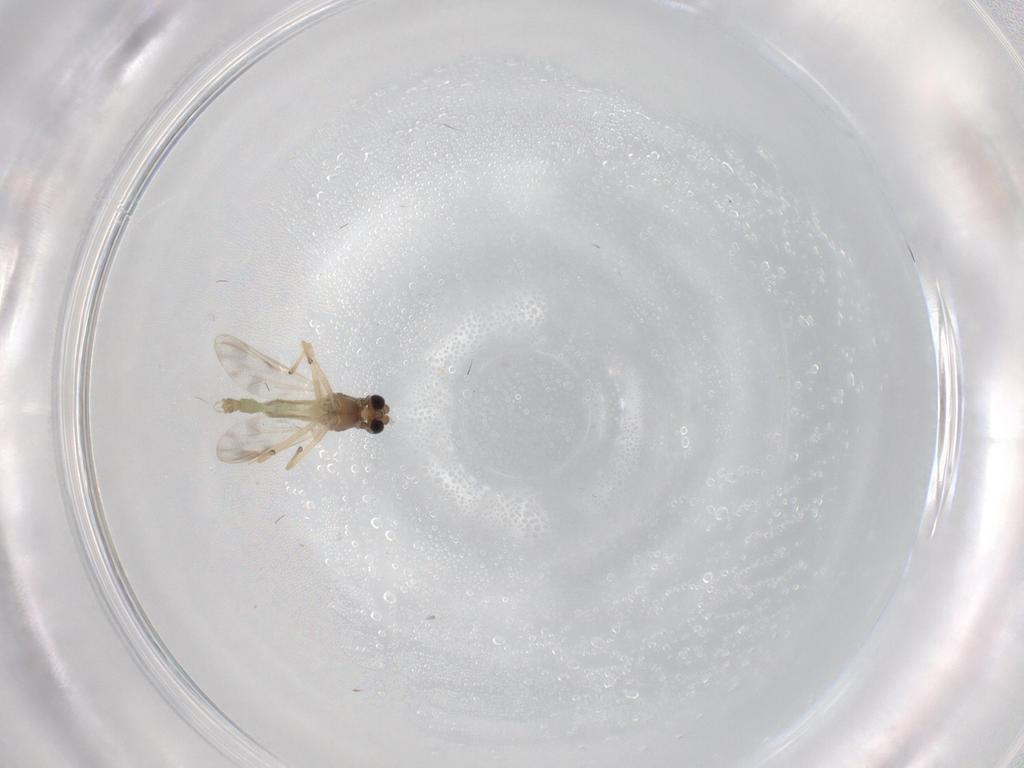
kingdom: Animalia
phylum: Arthropoda
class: Insecta
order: Diptera
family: Chironomidae
